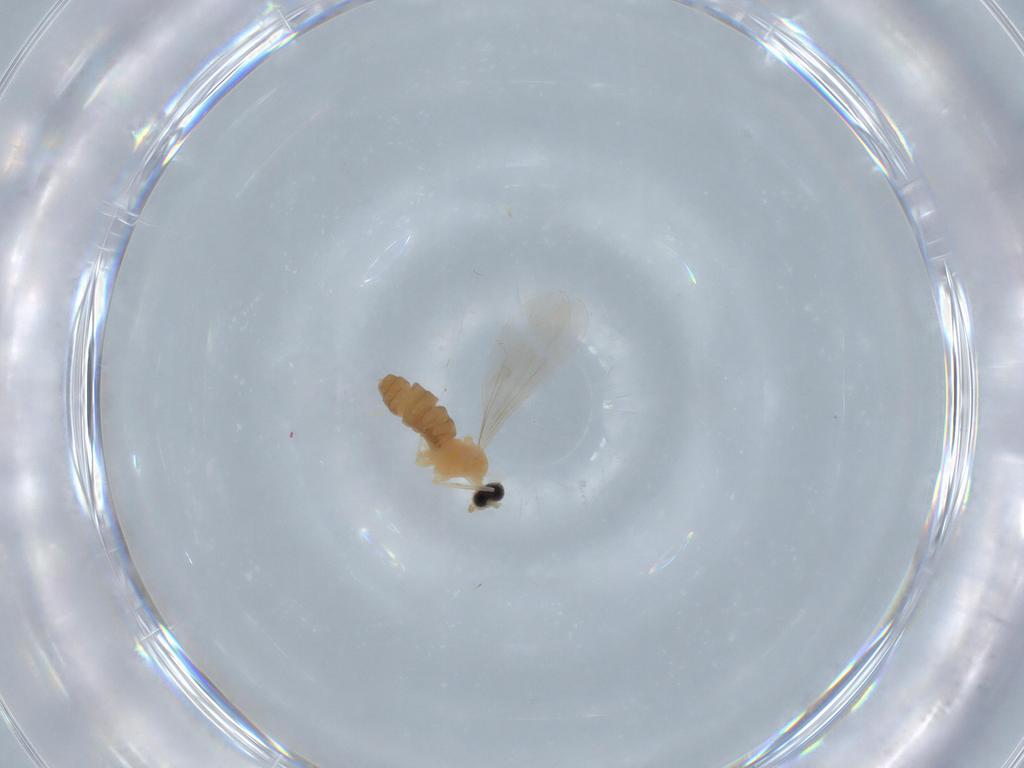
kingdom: Animalia
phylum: Arthropoda
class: Insecta
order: Diptera
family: Cecidomyiidae
